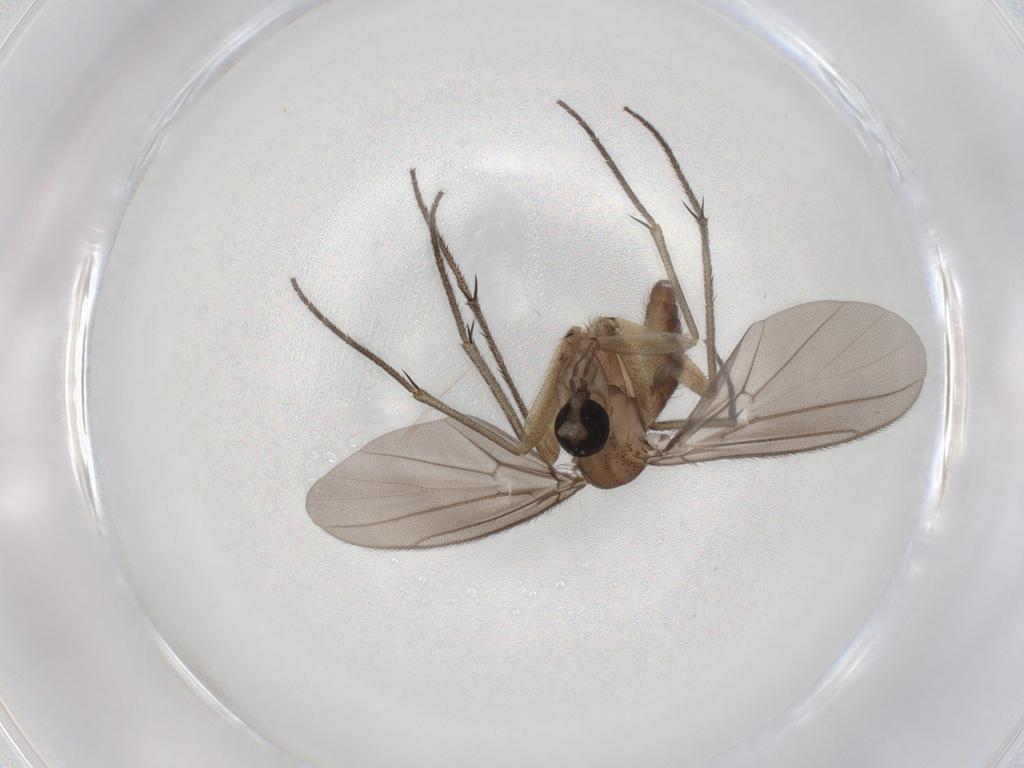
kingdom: Animalia
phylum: Arthropoda
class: Insecta
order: Diptera
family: Diadocidiidae
